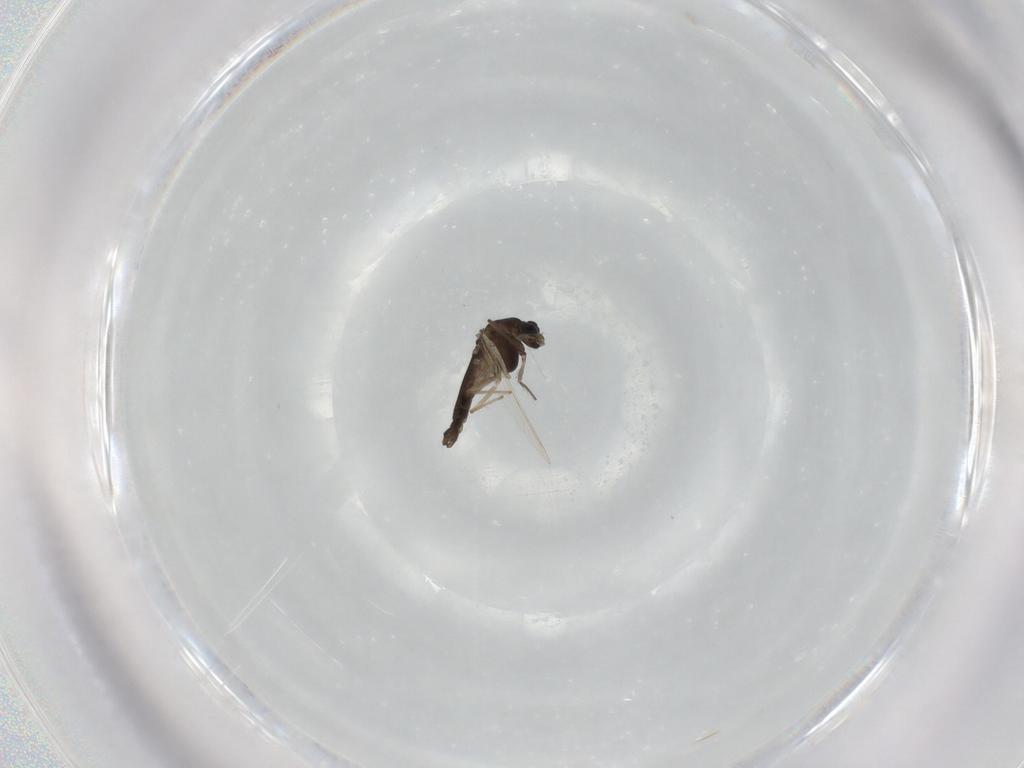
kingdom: Animalia
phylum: Arthropoda
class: Insecta
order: Diptera
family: Chironomidae
